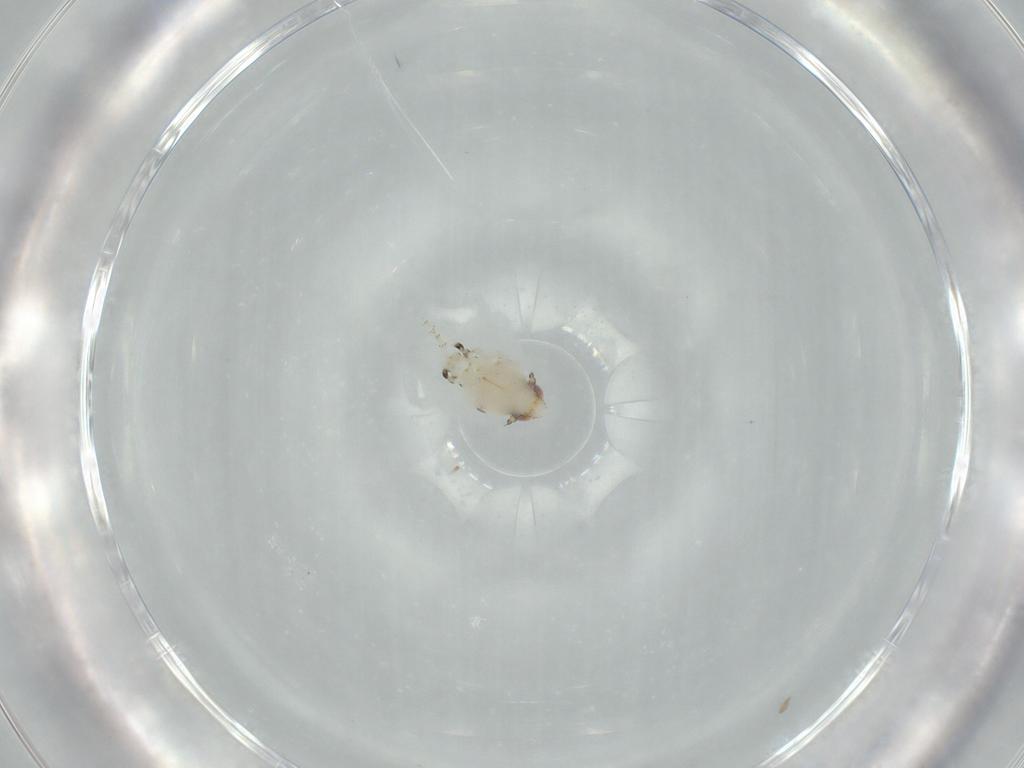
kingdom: Animalia
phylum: Arthropoda
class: Insecta
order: Hemiptera
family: Nogodinidae
